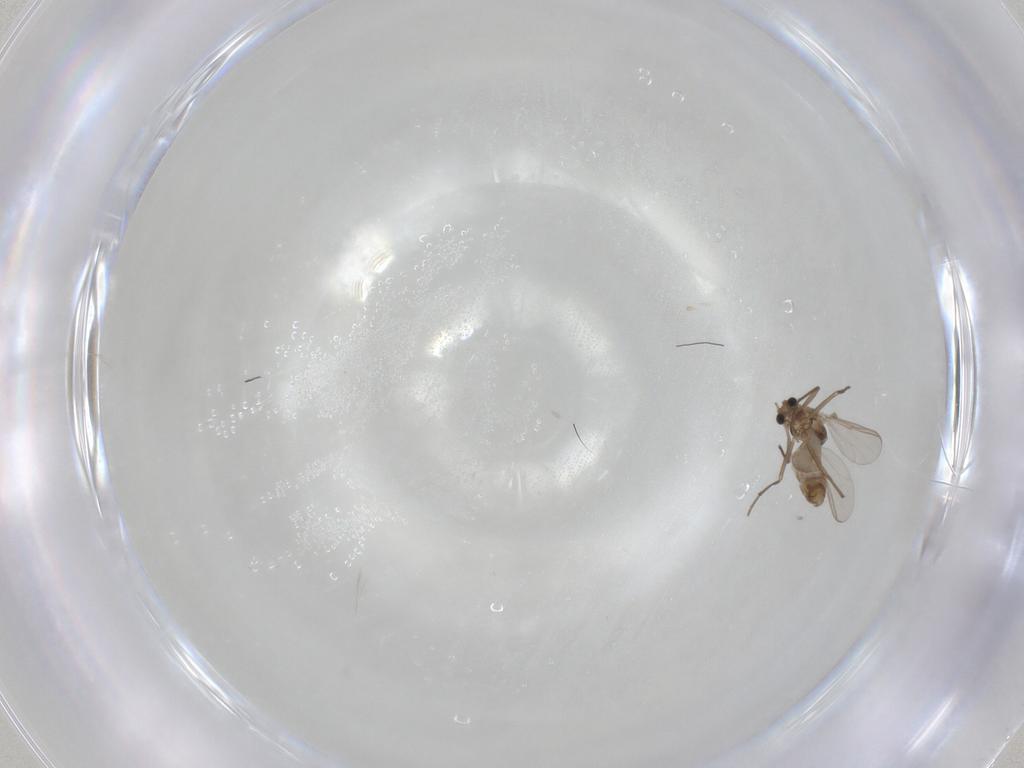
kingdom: Animalia
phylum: Arthropoda
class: Insecta
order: Diptera
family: Chironomidae
